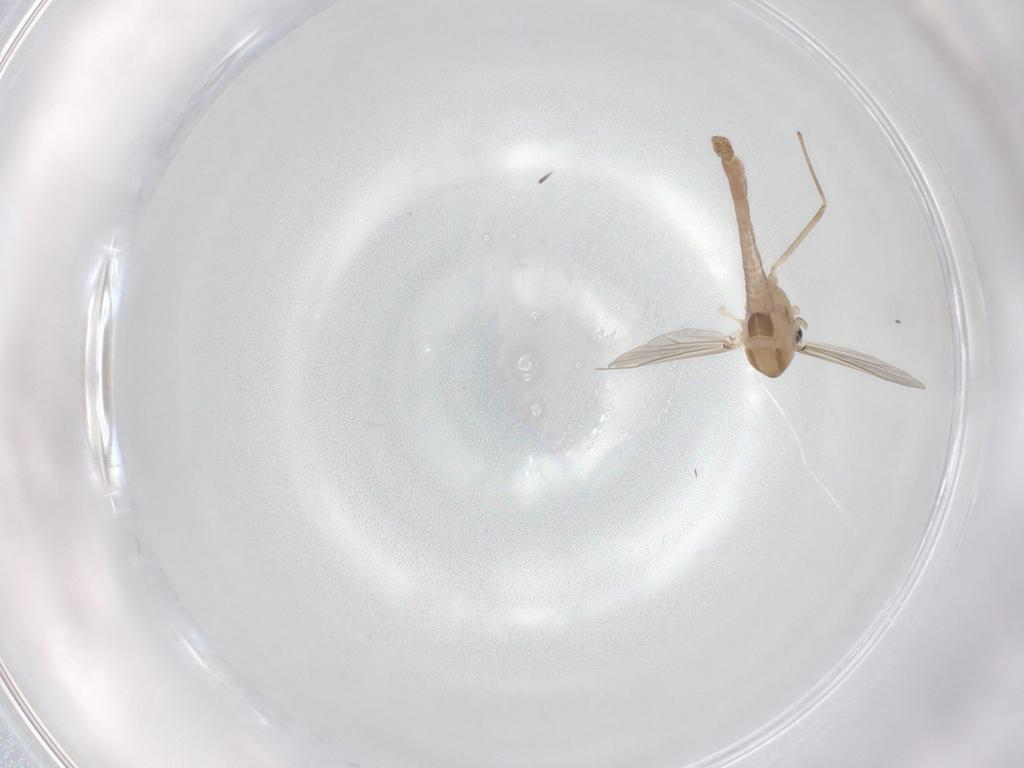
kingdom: Animalia
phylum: Arthropoda
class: Insecta
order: Diptera
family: Chironomidae
